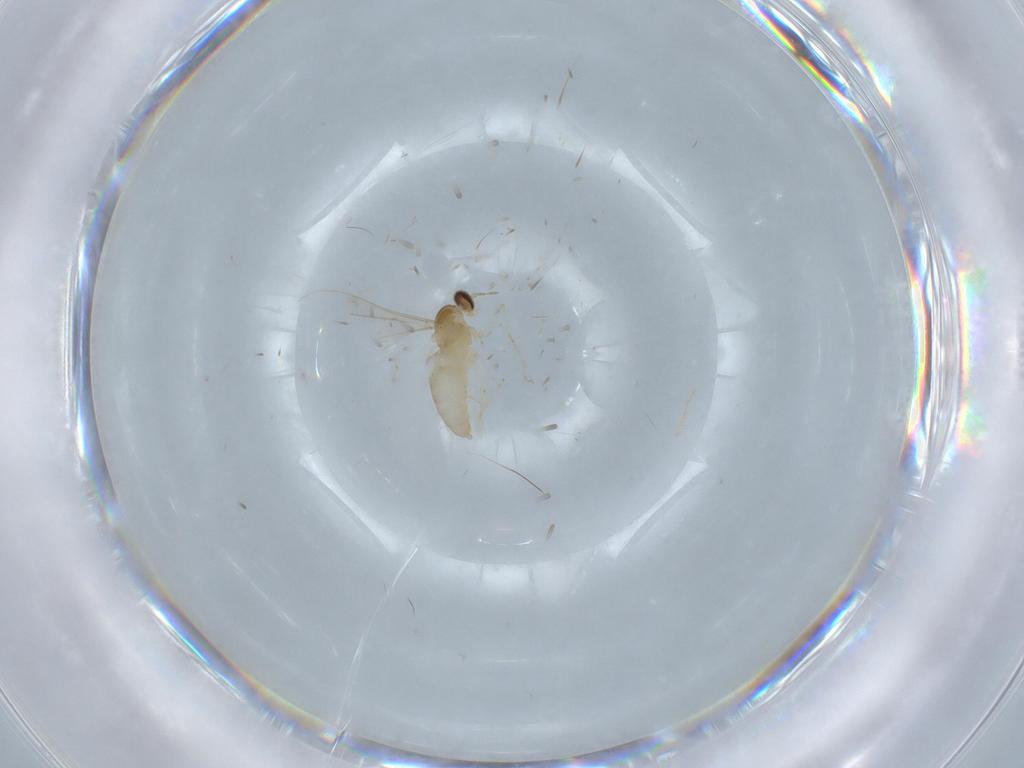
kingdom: Animalia
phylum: Arthropoda
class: Insecta
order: Diptera
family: Cecidomyiidae
